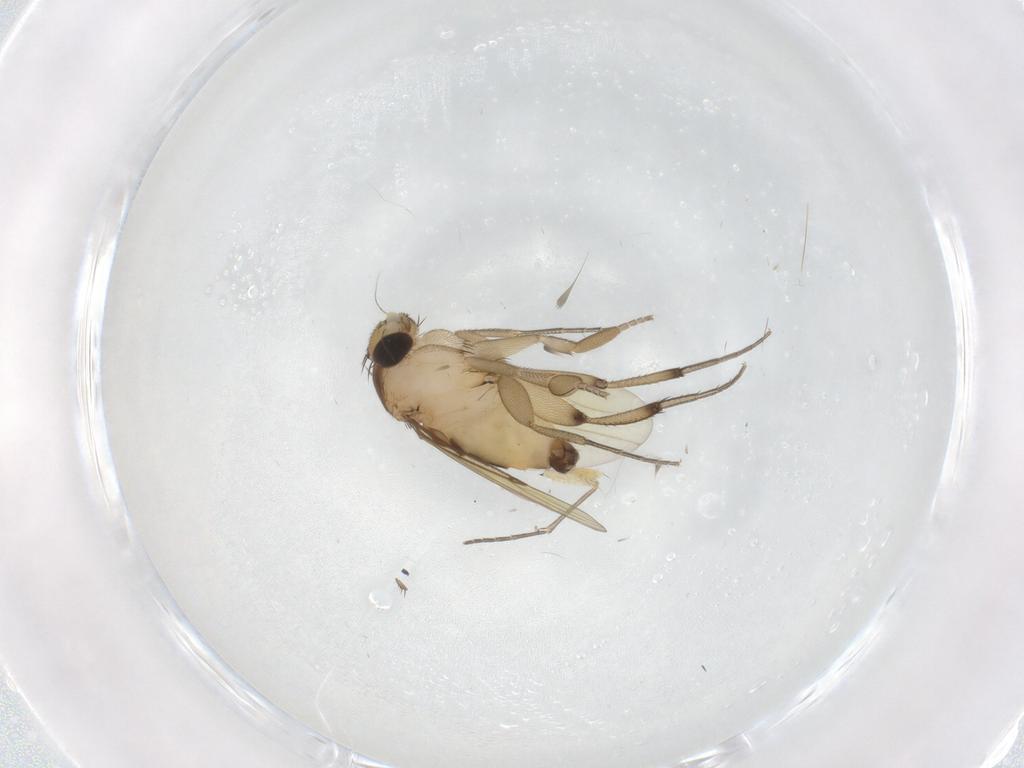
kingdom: Animalia
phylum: Arthropoda
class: Insecta
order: Diptera
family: Phoridae
